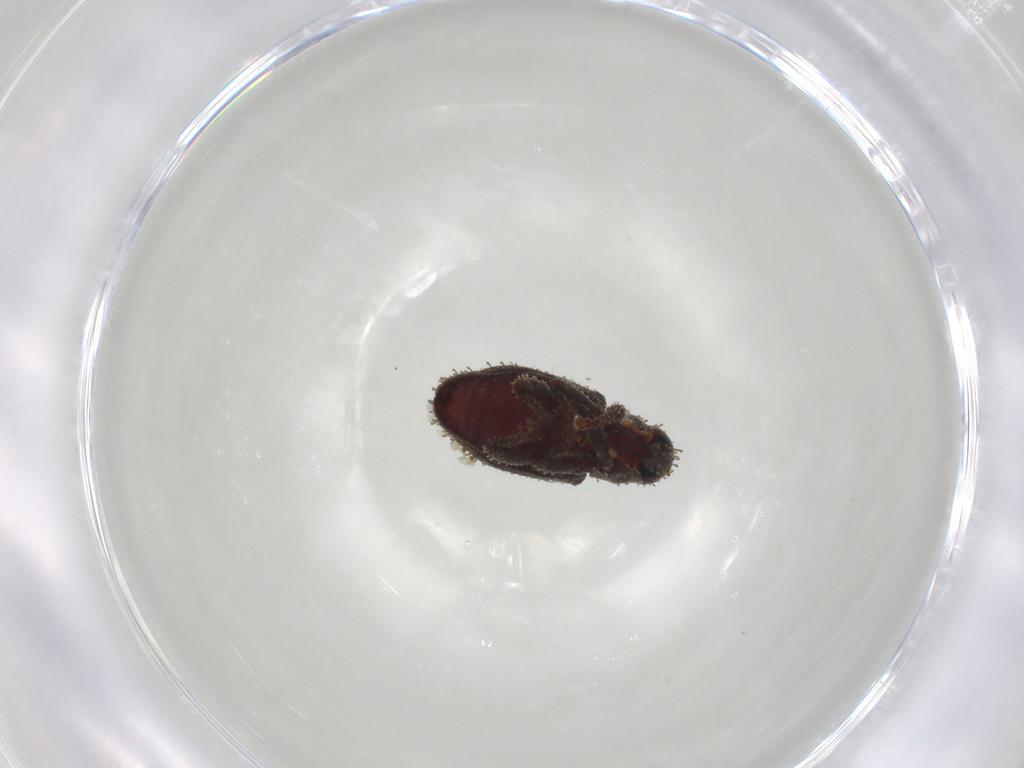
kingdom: Animalia
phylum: Arthropoda
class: Insecta
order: Coleoptera
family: Curculionidae
